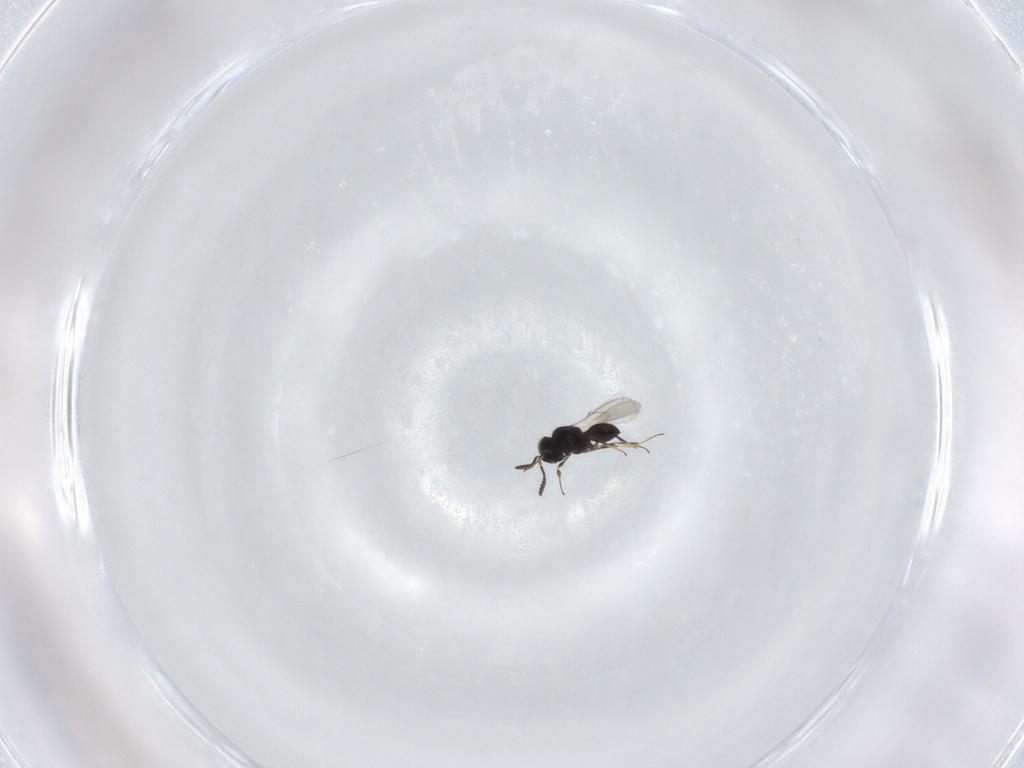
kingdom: Animalia
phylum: Arthropoda
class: Insecta
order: Hymenoptera
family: Scelionidae
